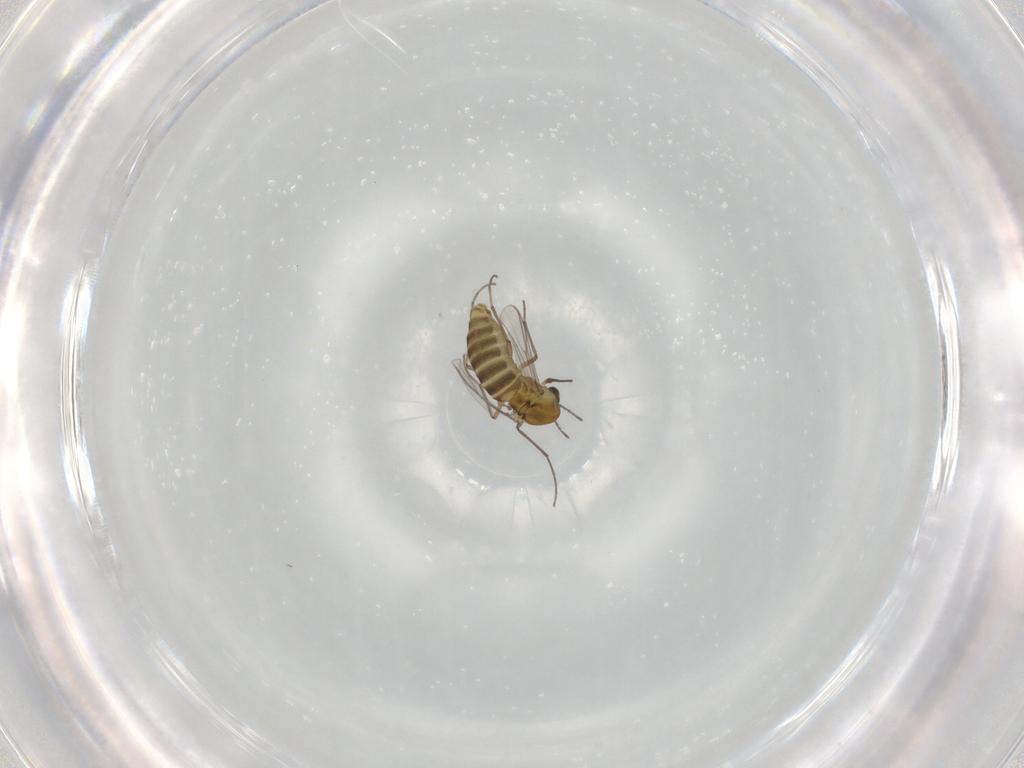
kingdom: Animalia
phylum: Arthropoda
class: Insecta
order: Diptera
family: Chironomidae
